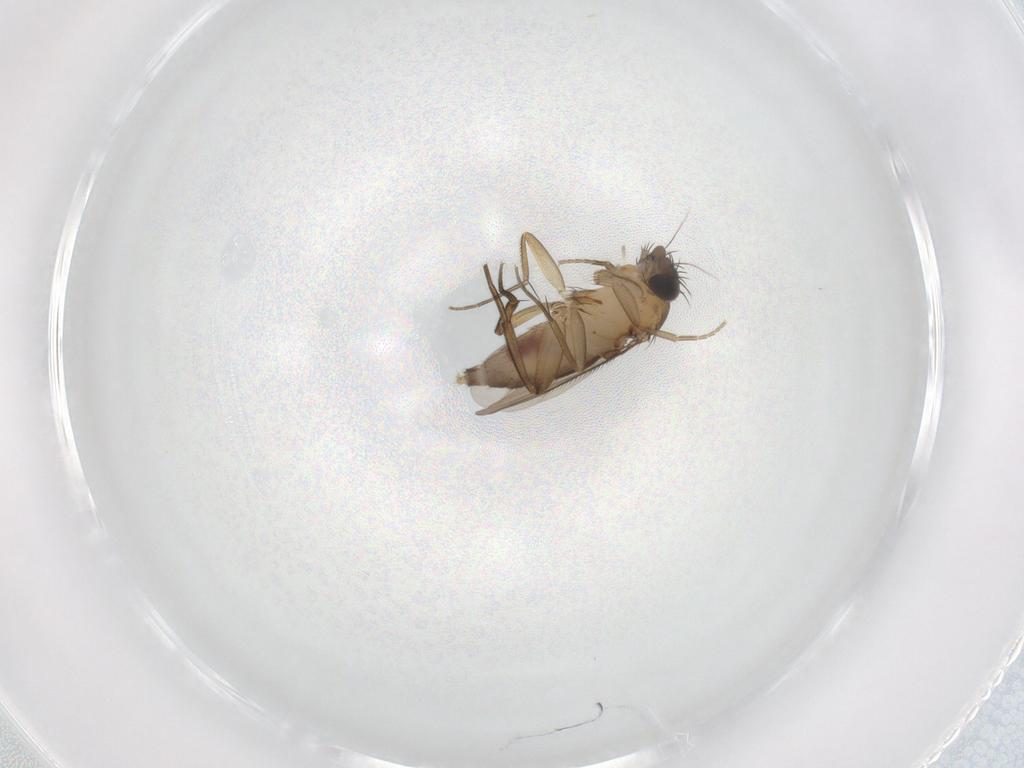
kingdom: Animalia
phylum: Arthropoda
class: Insecta
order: Diptera
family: Phoridae
